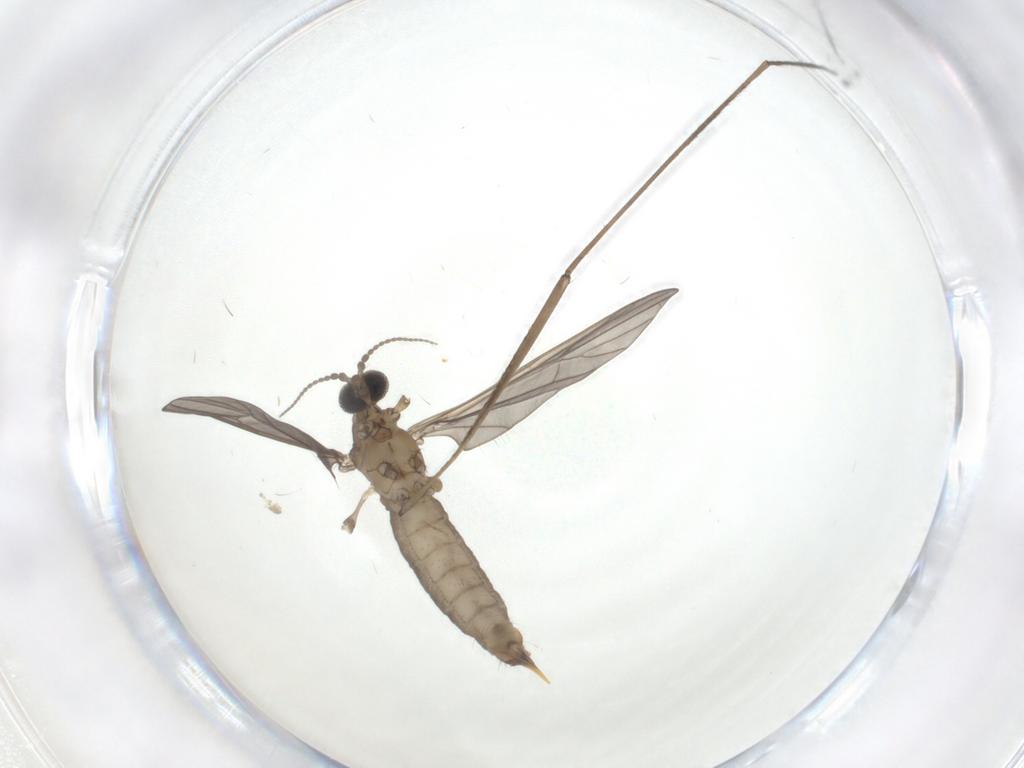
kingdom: Animalia
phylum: Arthropoda
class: Insecta
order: Diptera
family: Limoniidae
